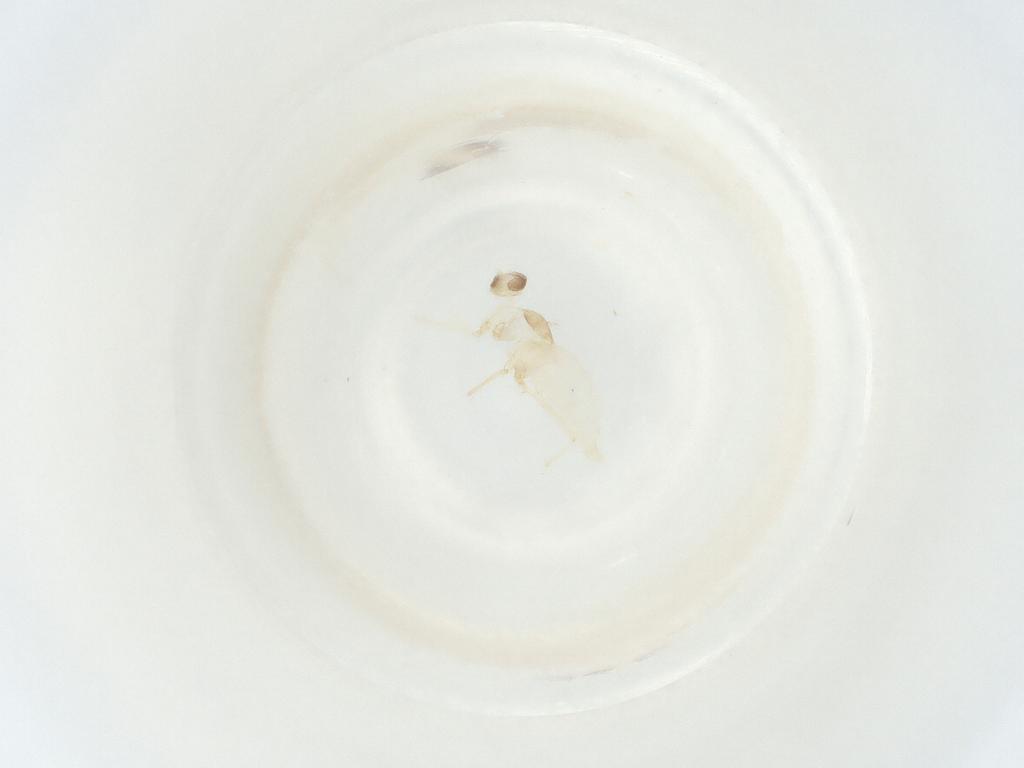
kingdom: Animalia
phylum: Arthropoda
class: Insecta
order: Diptera
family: Cecidomyiidae
